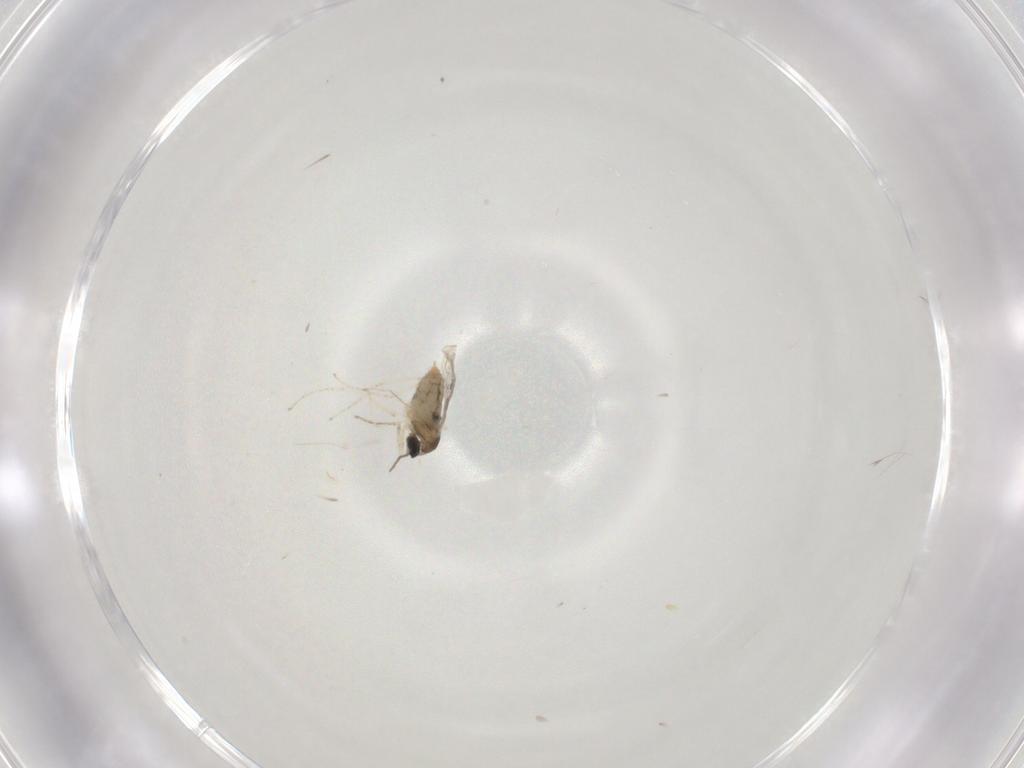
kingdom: Animalia
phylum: Arthropoda
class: Insecta
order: Diptera
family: Cecidomyiidae
